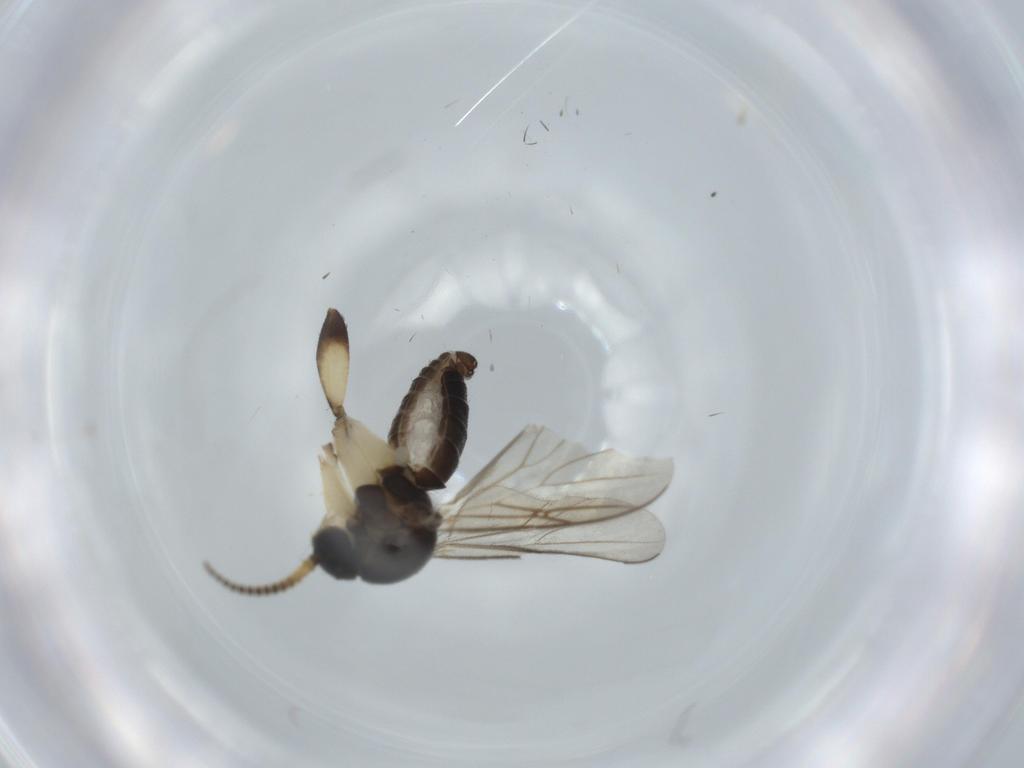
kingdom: Animalia
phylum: Arthropoda
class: Insecta
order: Diptera
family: Mycetophilidae
